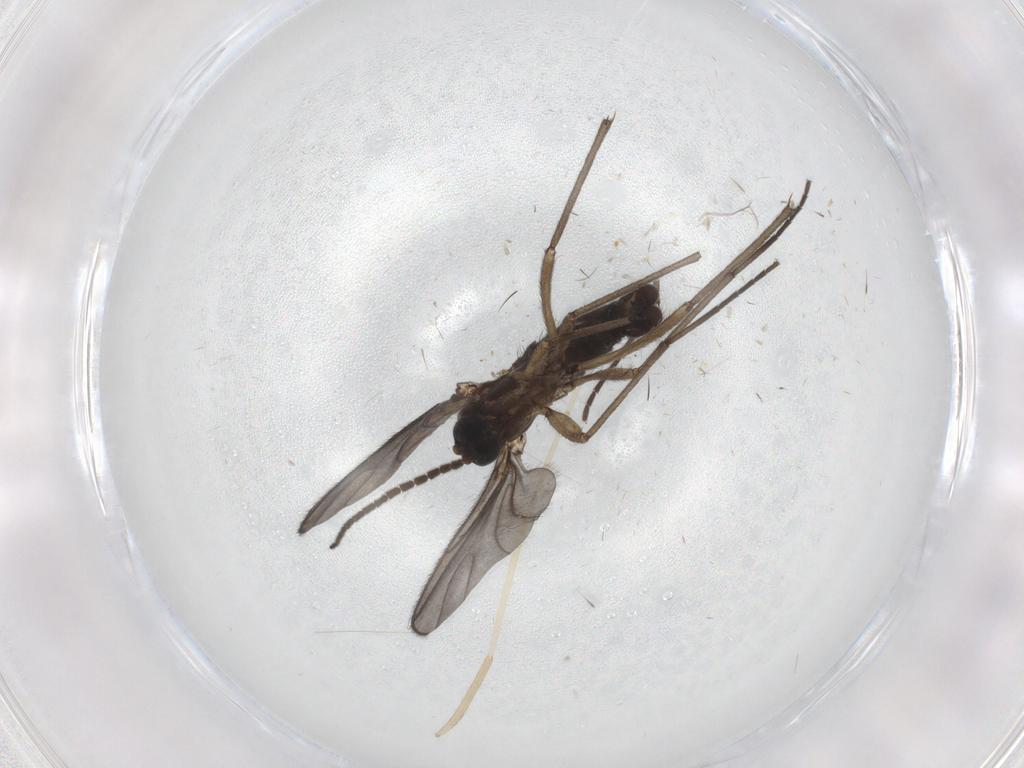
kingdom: Animalia
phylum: Arthropoda
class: Insecta
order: Diptera
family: Sciaridae
